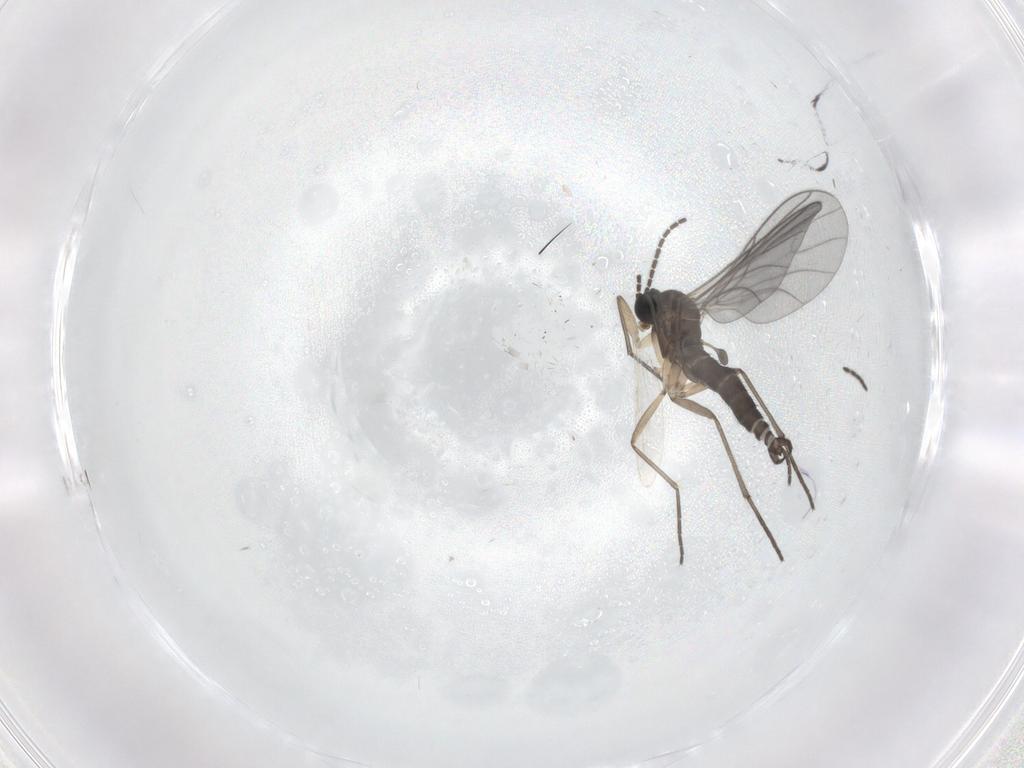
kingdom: Animalia
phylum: Arthropoda
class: Insecta
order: Diptera
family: Sciaridae
